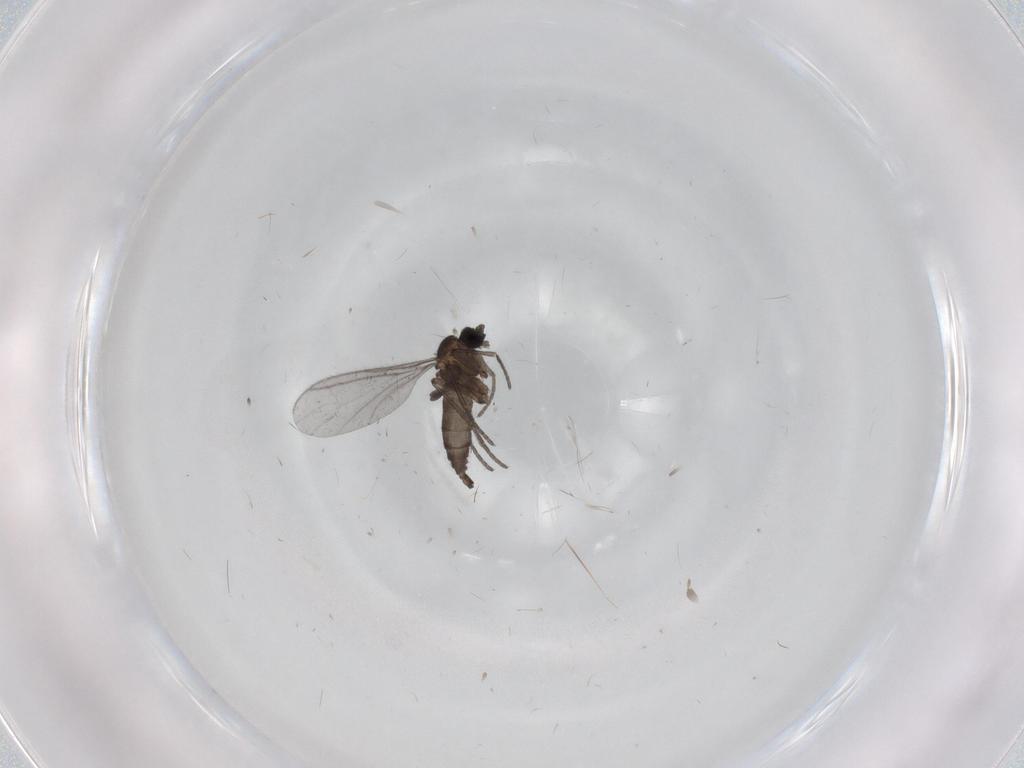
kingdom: Animalia
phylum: Arthropoda
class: Insecta
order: Diptera
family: Sciaridae
